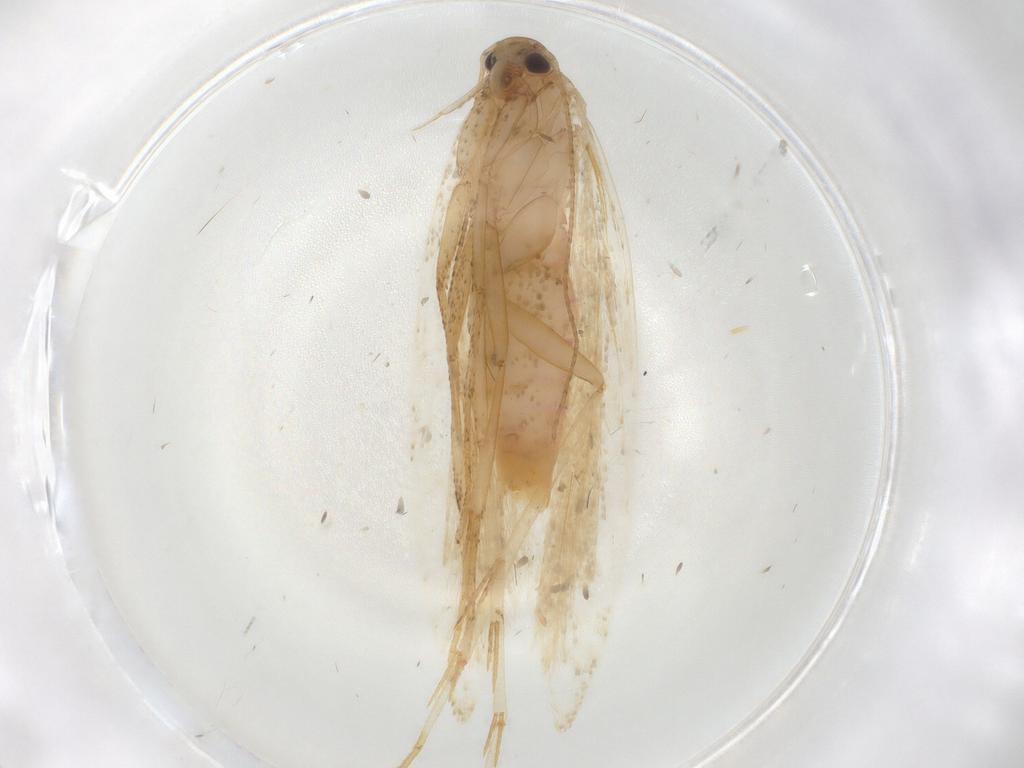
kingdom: Animalia
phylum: Arthropoda
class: Insecta
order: Lepidoptera
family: Crambidae
